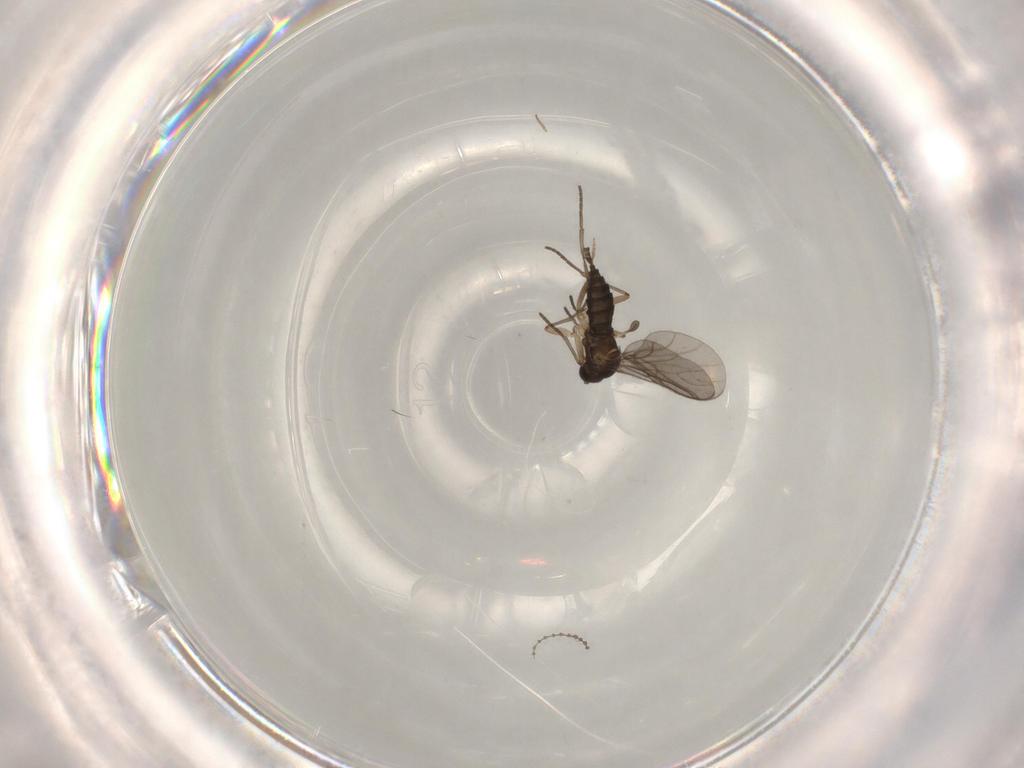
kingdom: Animalia
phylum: Arthropoda
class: Insecta
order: Diptera
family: Cecidomyiidae
